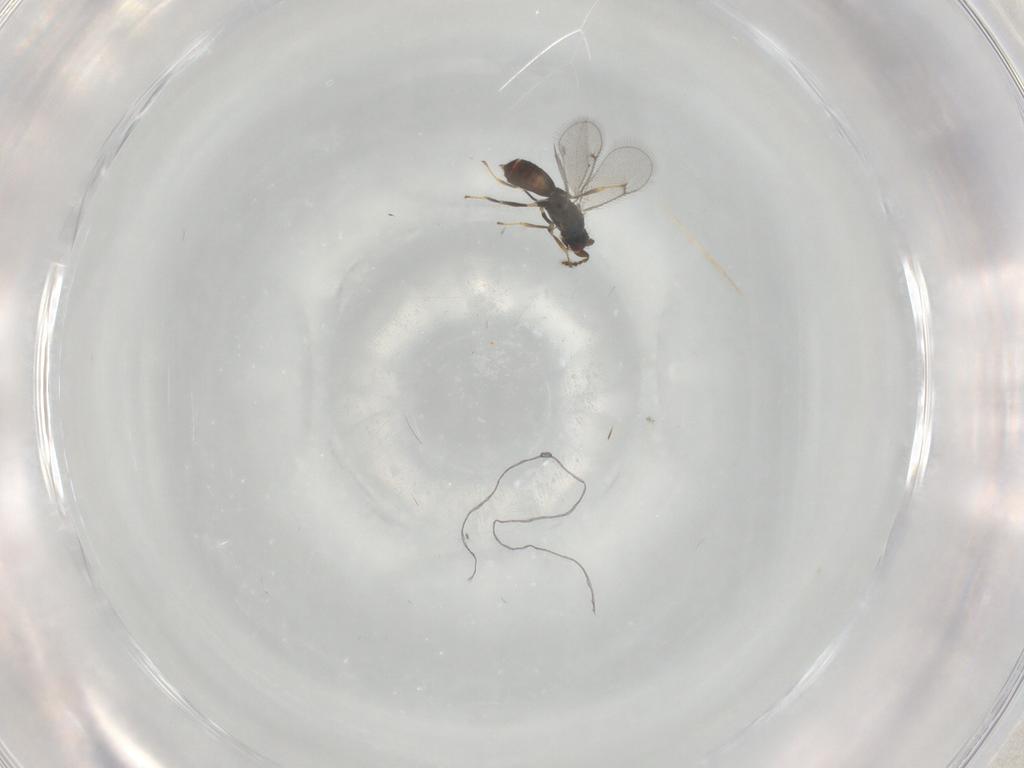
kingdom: Animalia
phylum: Arthropoda
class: Insecta
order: Hymenoptera
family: Eulophidae
